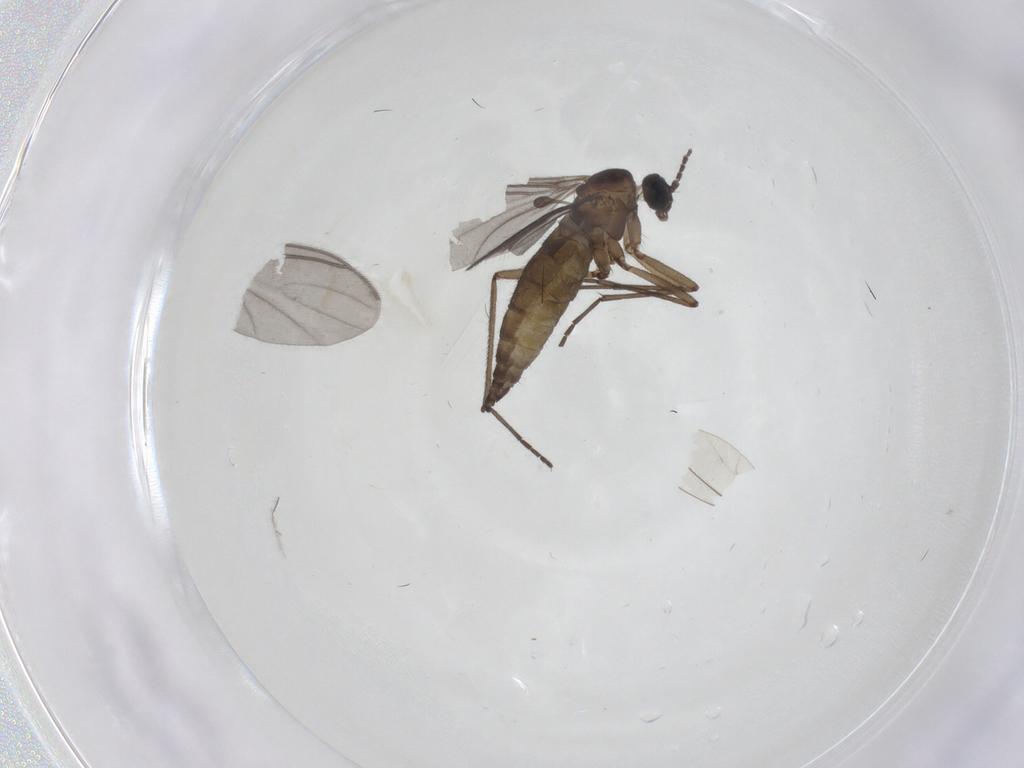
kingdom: Animalia
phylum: Arthropoda
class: Insecta
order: Diptera
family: Sciaridae
